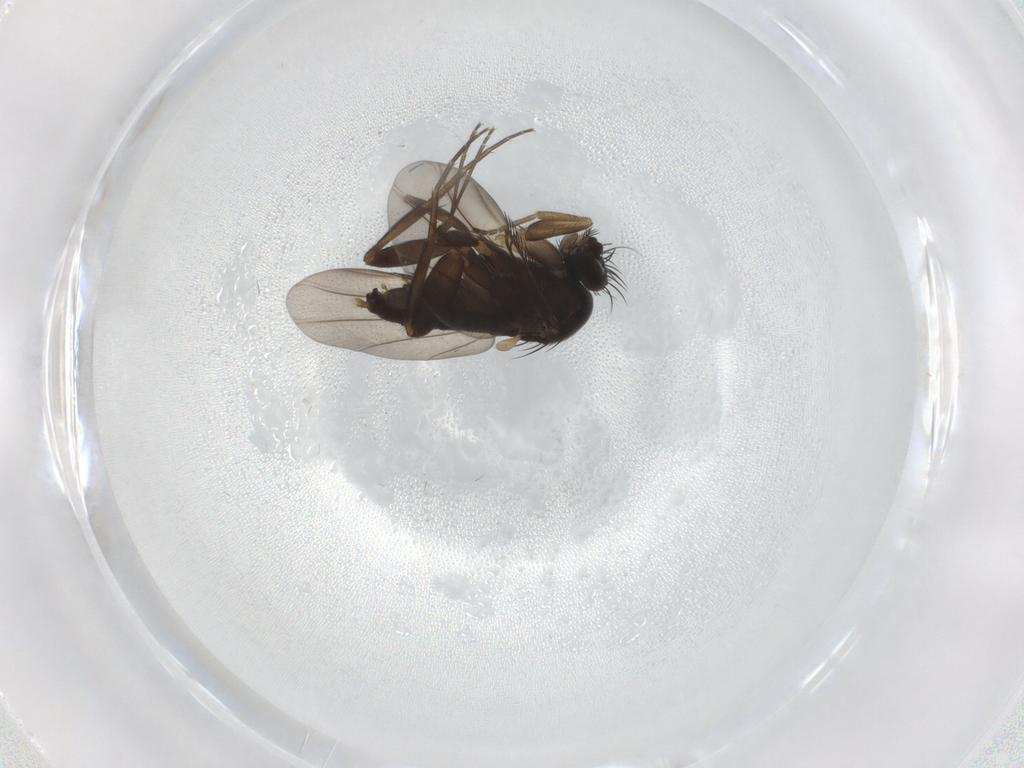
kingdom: Animalia
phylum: Arthropoda
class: Insecta
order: Diptera
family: Phoridae
